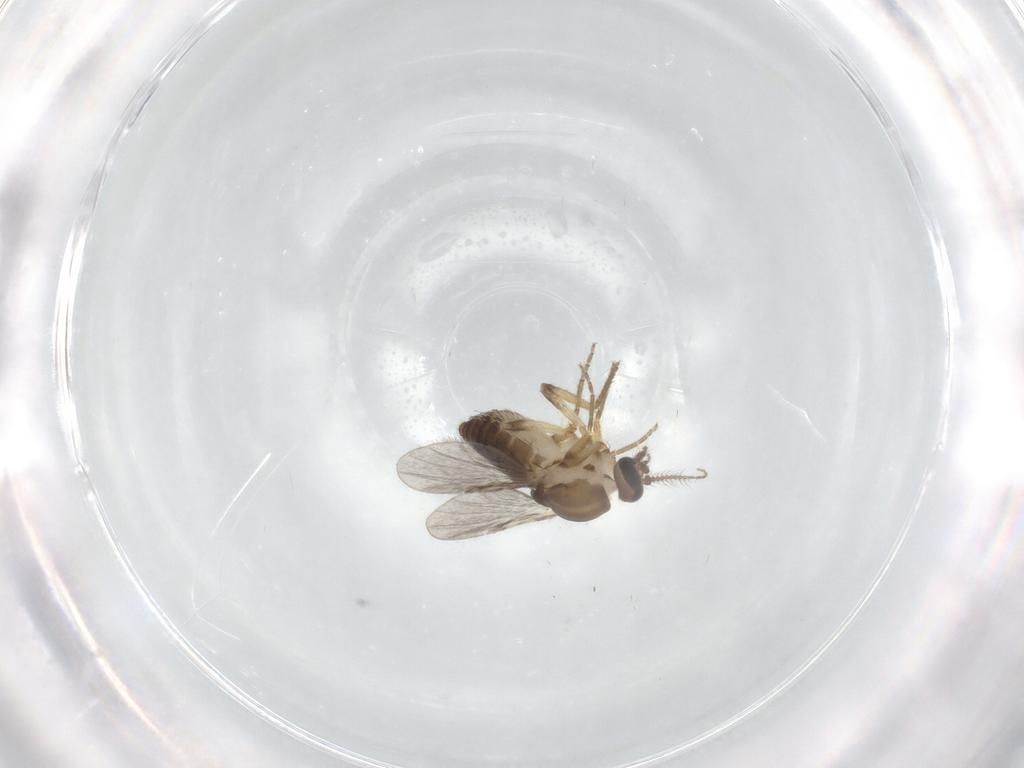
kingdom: Animalia
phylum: Arthropoda
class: Insecta
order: Diptera
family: Ceratopogonidae
